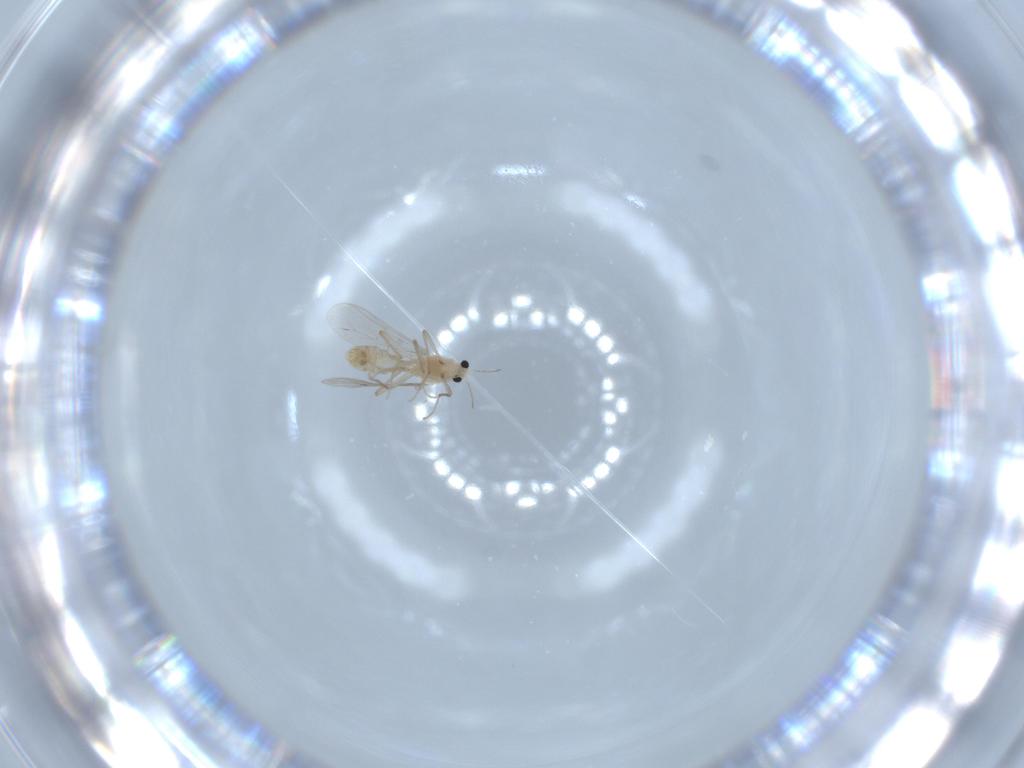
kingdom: Animalia
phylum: Arthropoda
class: Insecta
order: Diptera
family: Chironomidae
